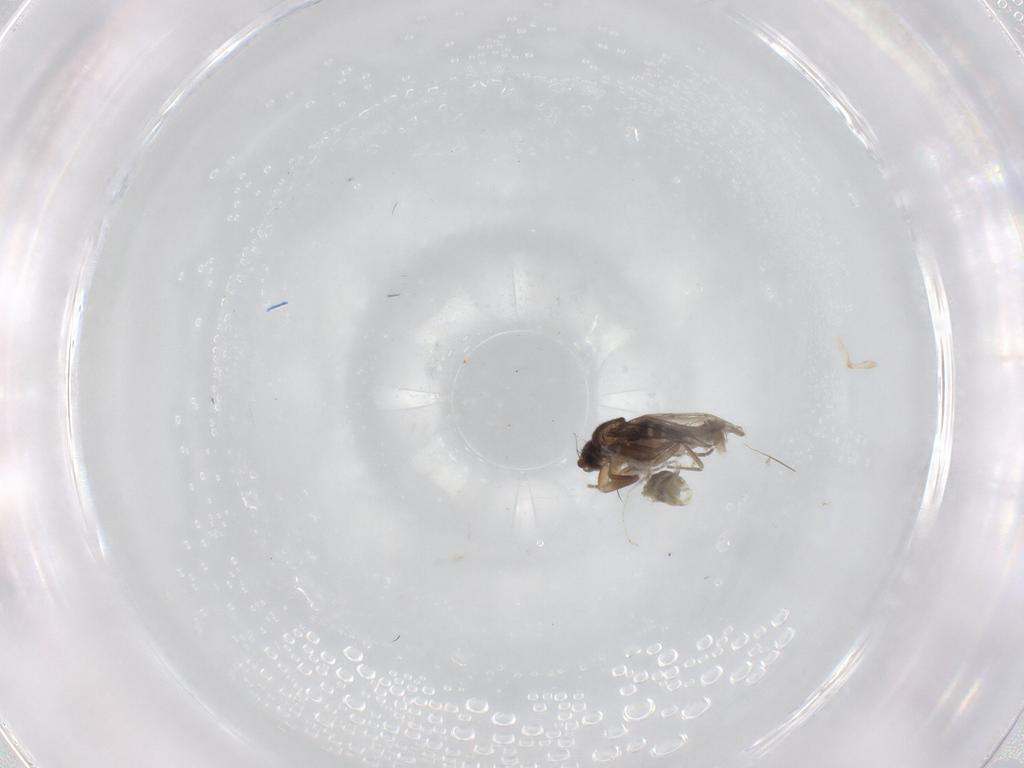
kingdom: Animalia
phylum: Arthropoda
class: Insecta
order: Diptera
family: Phoridae
